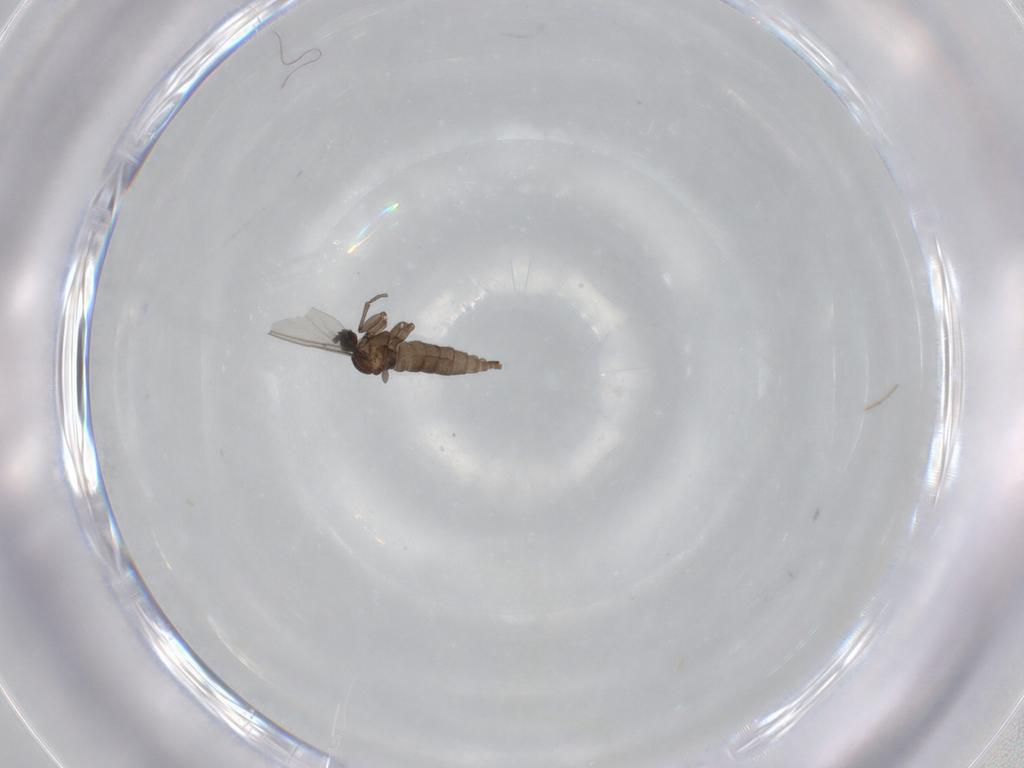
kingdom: Animalia
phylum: Arthropoda
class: Insecta
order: Diptera
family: Sciaridae
